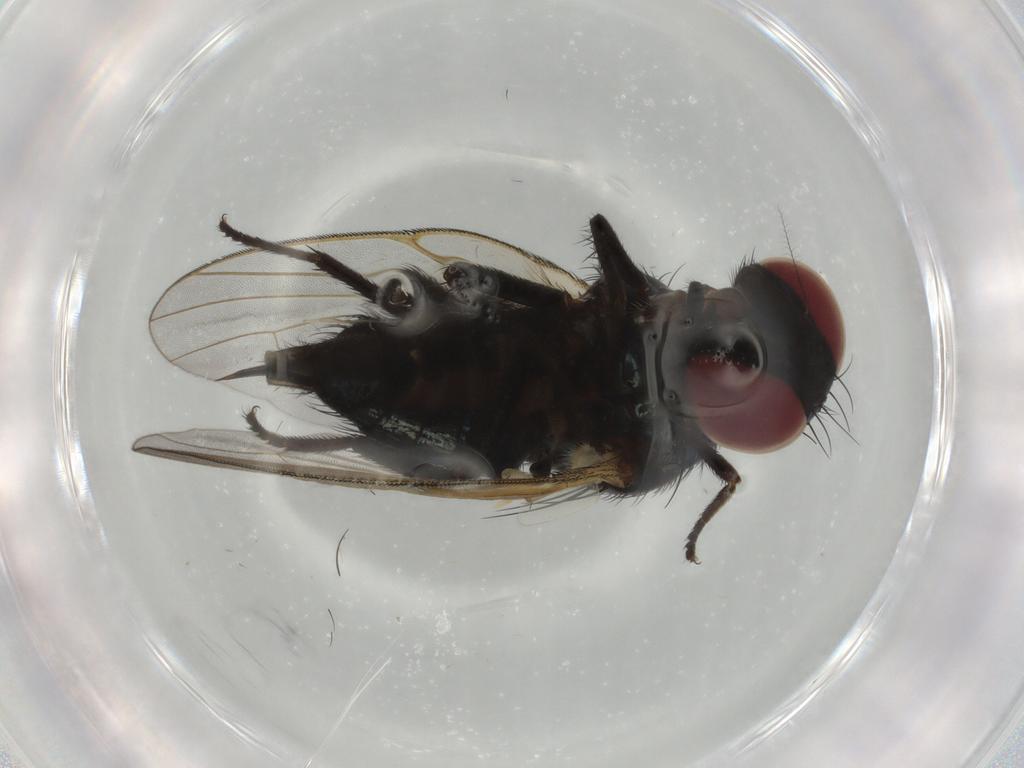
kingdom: Animalia
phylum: Arthropoda
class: Insecta
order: Diptera
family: Lonchaeidae
